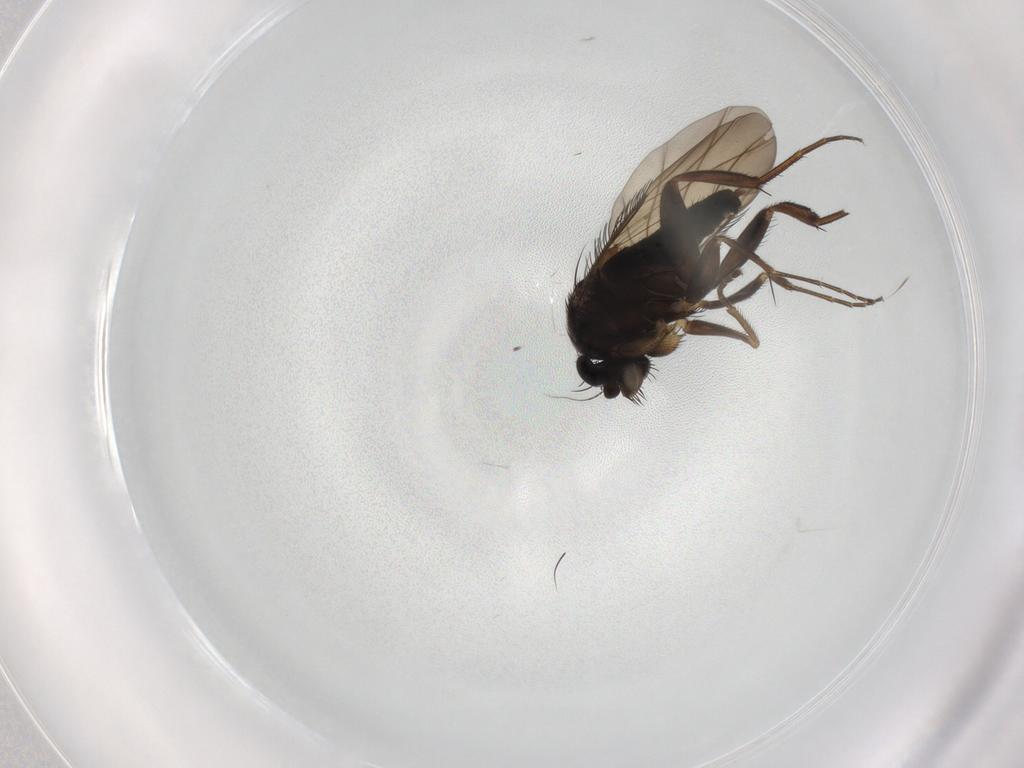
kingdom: Animalia
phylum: Arthropoda
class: Insecta
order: Diptera
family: Phoridae
